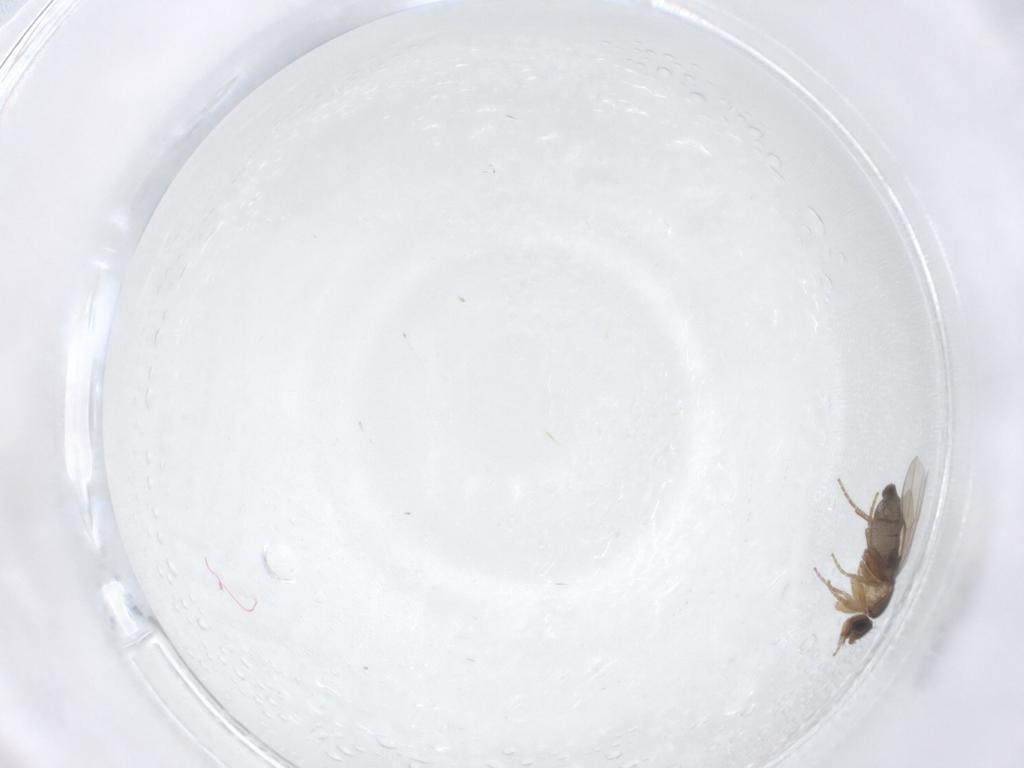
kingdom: Animalia
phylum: Arthropoda
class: Insecta
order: Diptera
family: Phoridae
